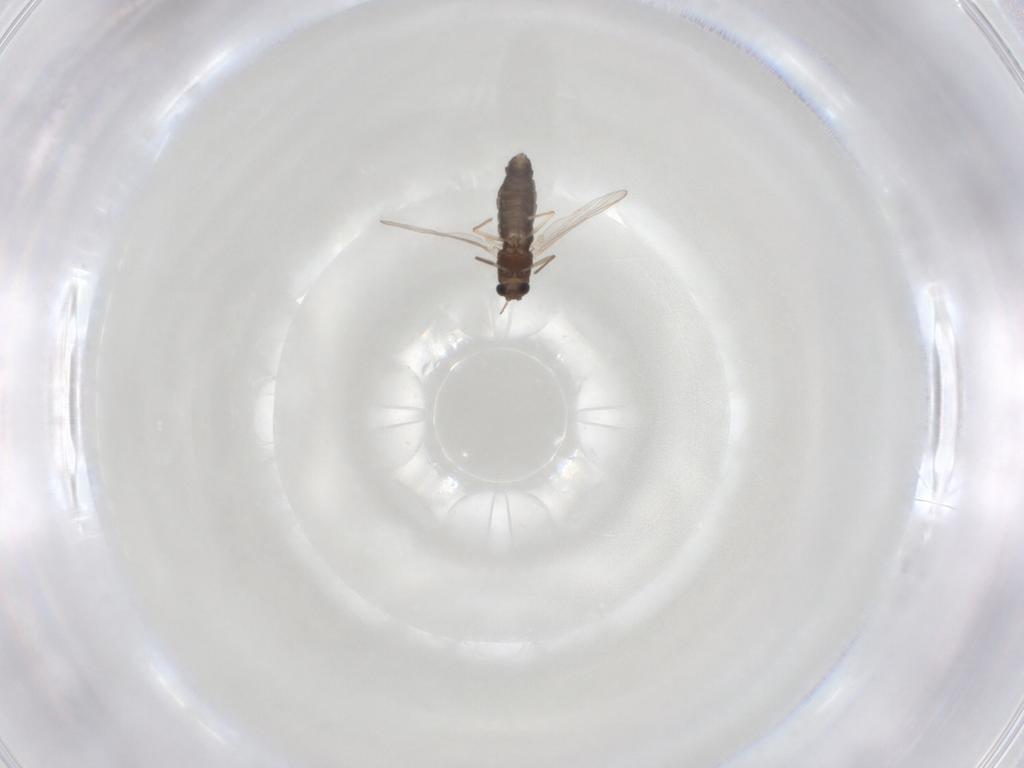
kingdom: Animalia
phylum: Arthropoda
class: Insecta
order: Diptera
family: Chironomidae
